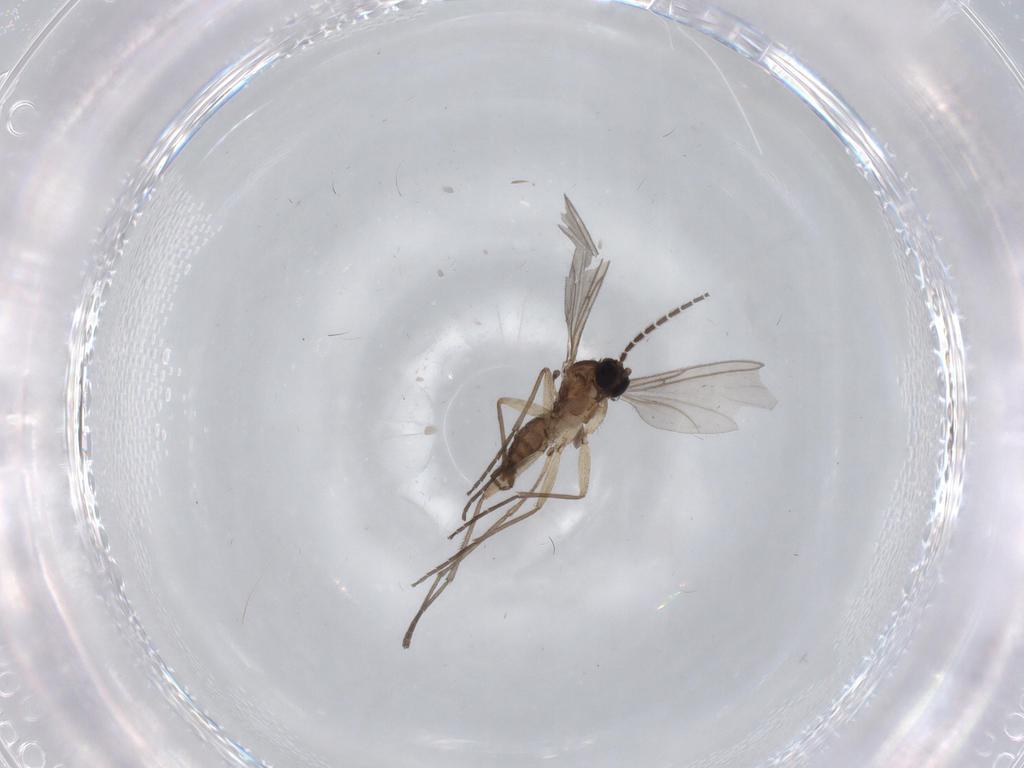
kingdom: Animalia
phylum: Arthropoda
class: Insecta
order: Diptera
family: Sciaridae
